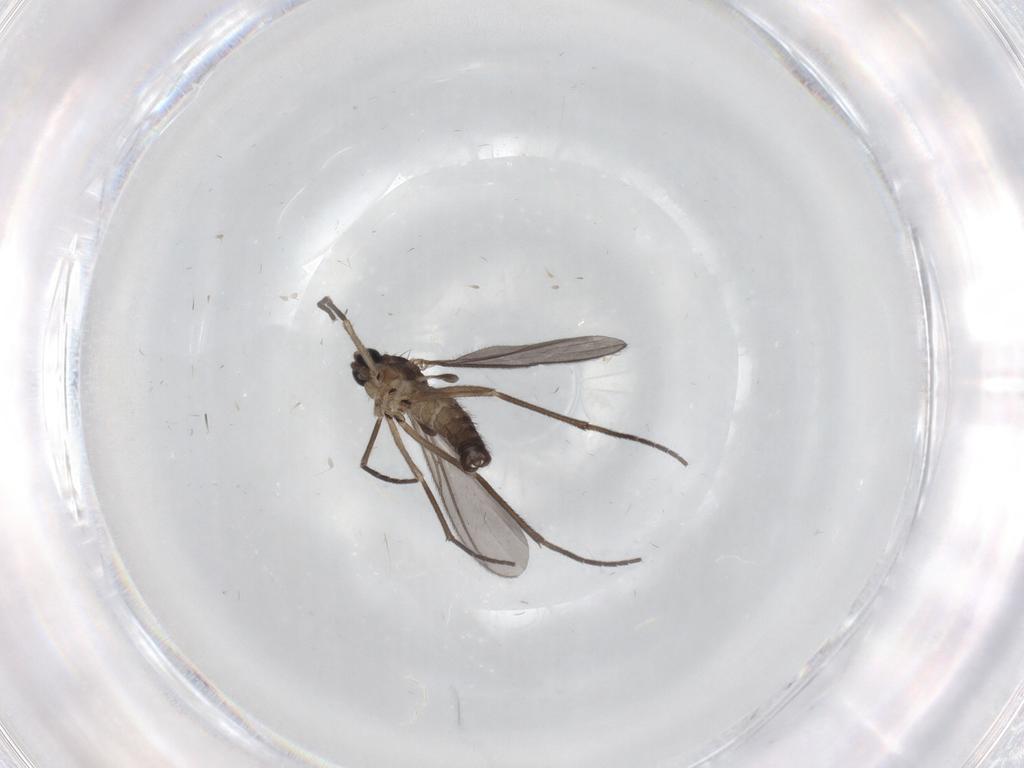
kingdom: Animalia
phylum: Arthropoda
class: Insecta
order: Diptera
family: Sciaridae
